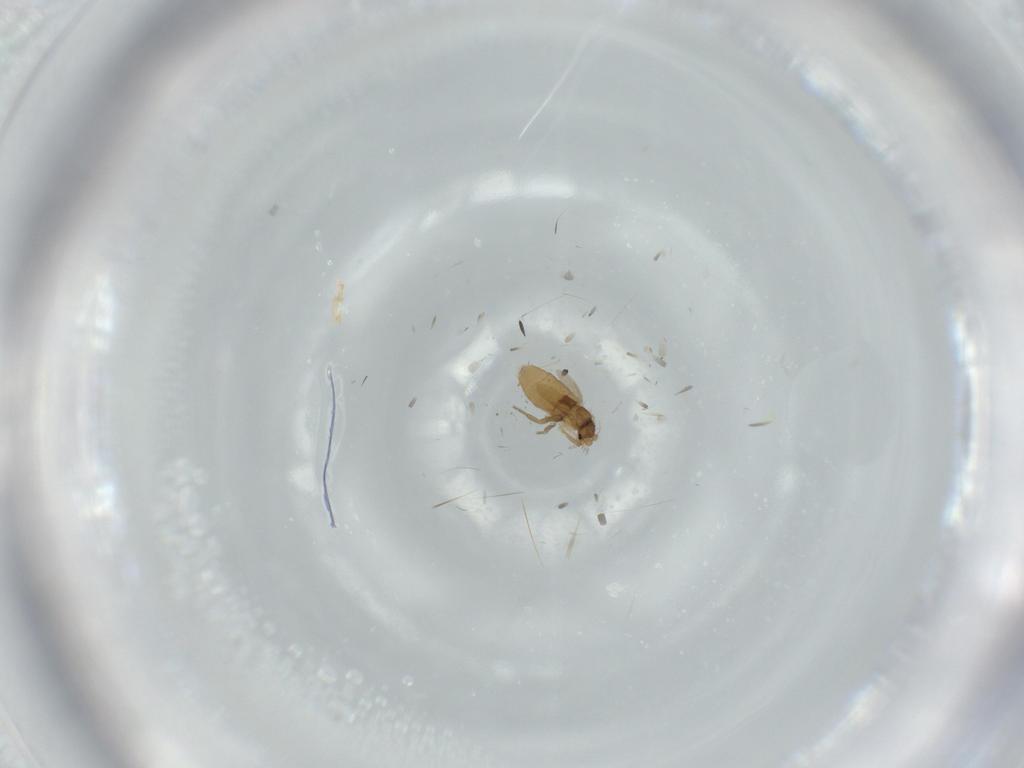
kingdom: Animalia
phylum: Arthropoda
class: Insecta
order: Diptera
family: Phoridae
